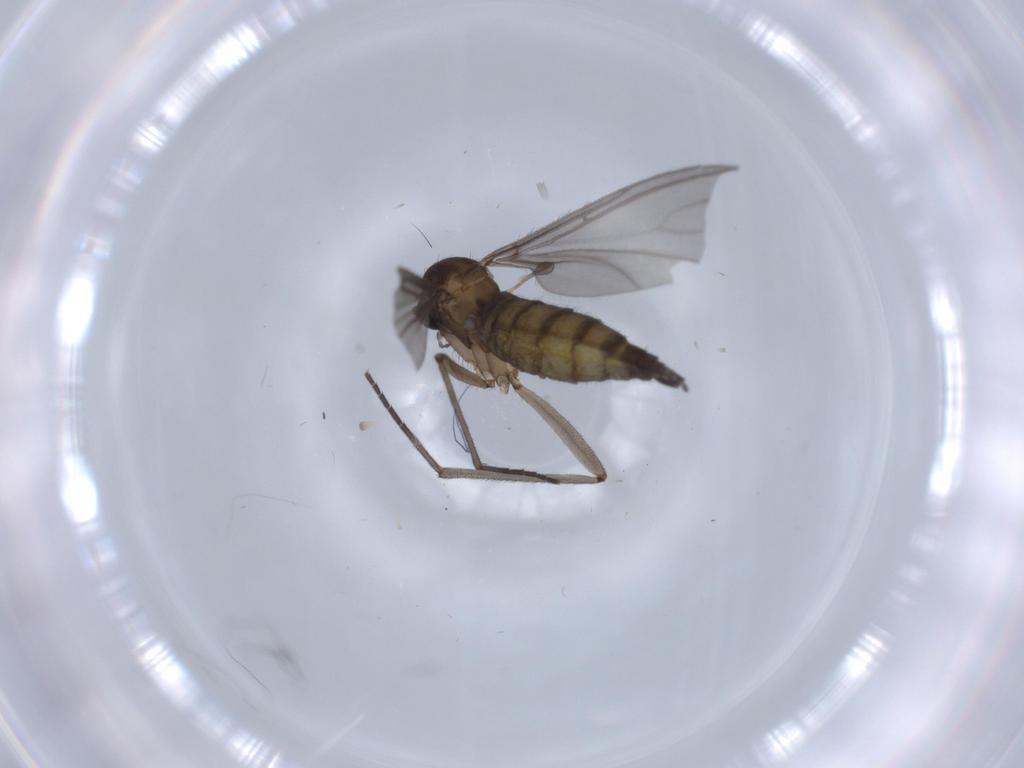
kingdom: Animalia
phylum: Arthropoda
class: Insecta
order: Diptera
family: Sciaridae
